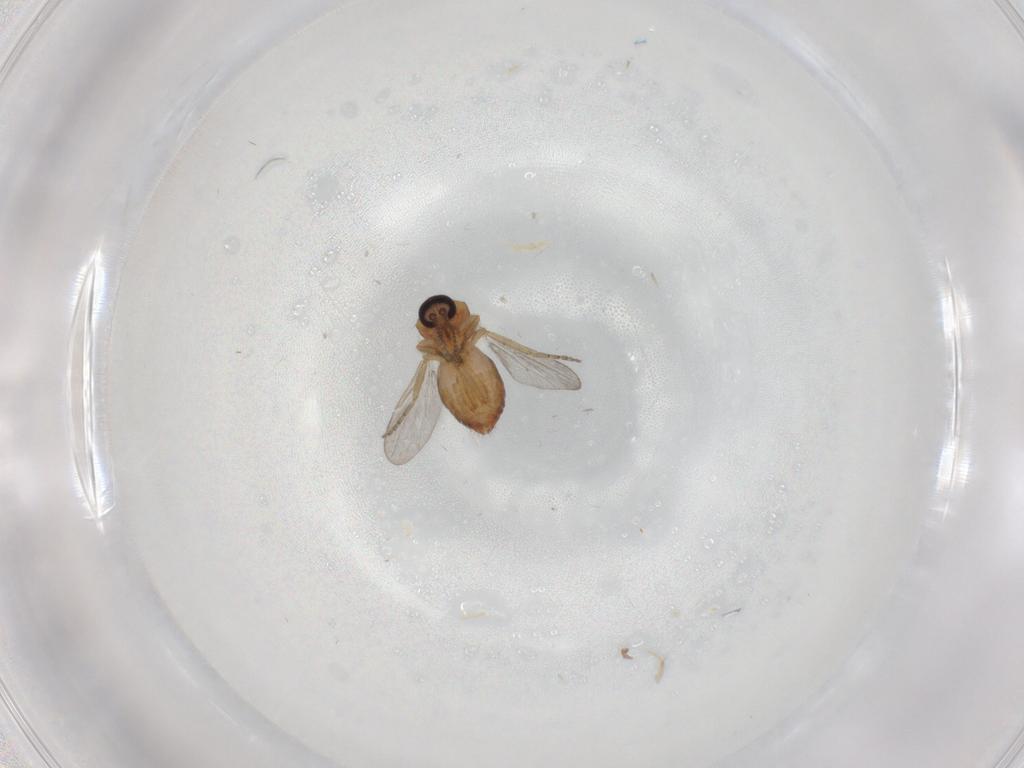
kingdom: Animalia
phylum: Arthropoda
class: Insecta
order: Diptera
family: Ceratopogonidae
